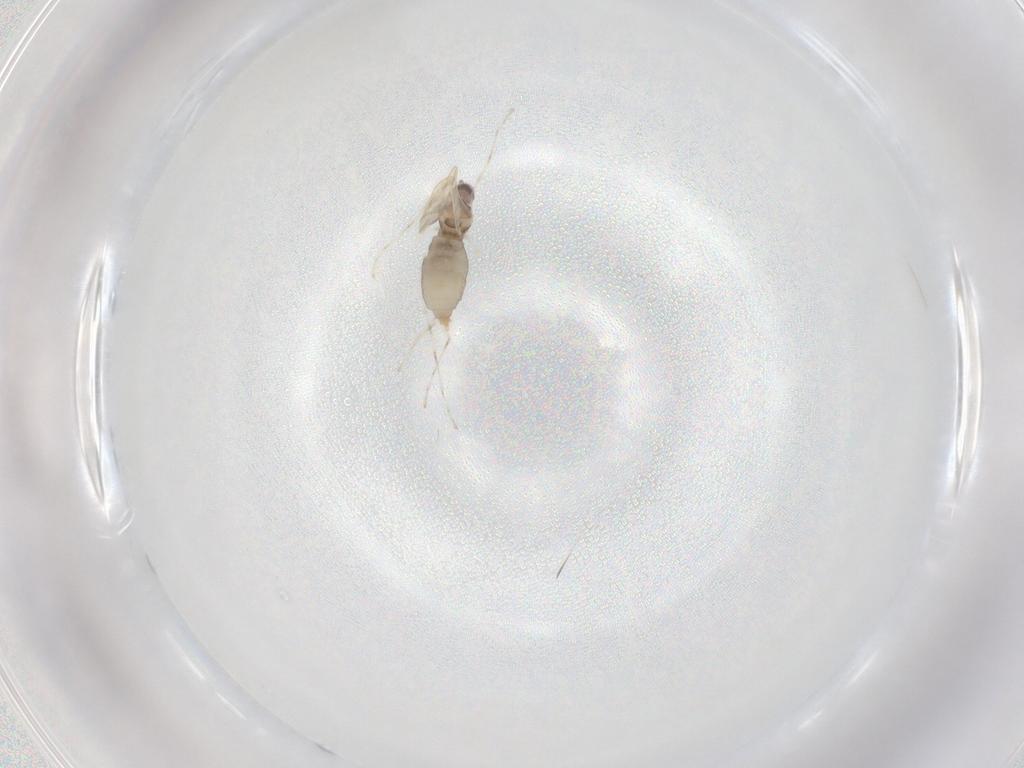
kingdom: Animalia
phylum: Arthropoda
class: Insecta
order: Diptera
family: Cecidomyiidae
